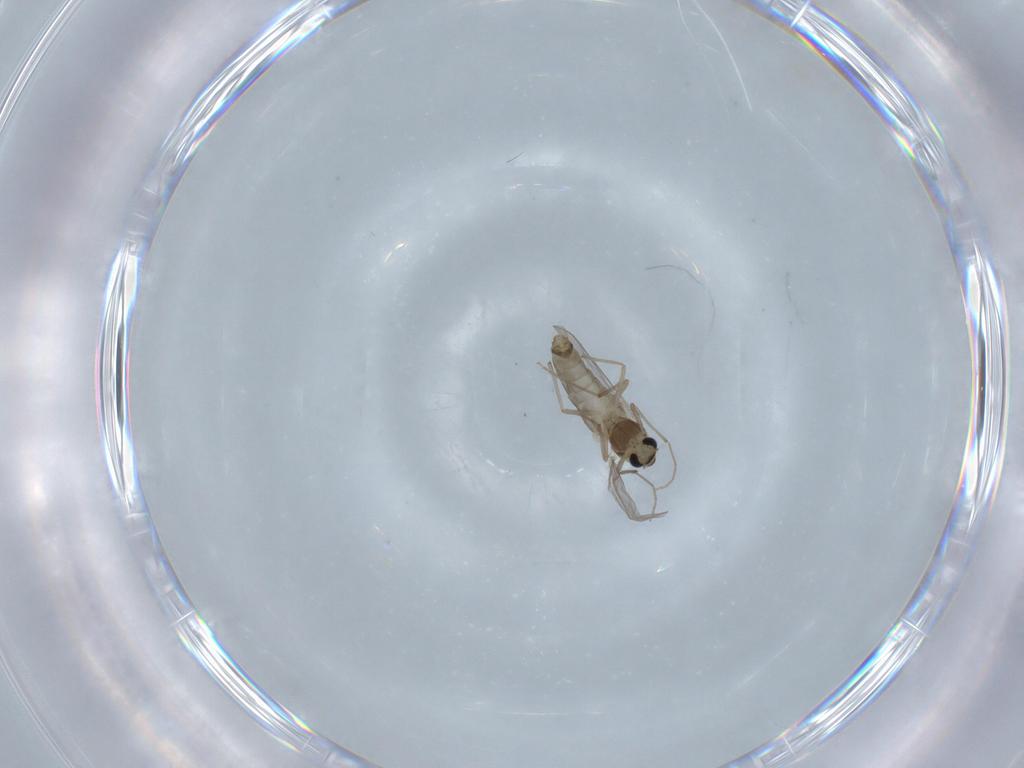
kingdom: Animalia
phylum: Arthropoda
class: Insecta
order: Diptera
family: Chironomidae
